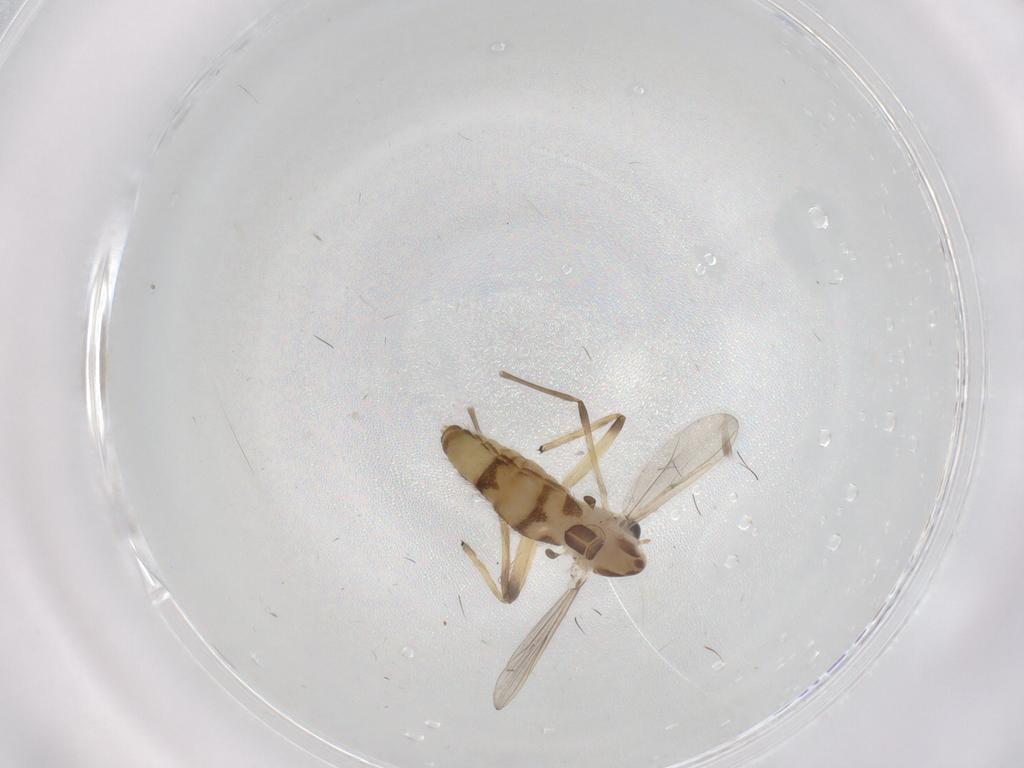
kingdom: Animalia
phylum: Arthropoda
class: Insecta
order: Diptera
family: Chironomidae
